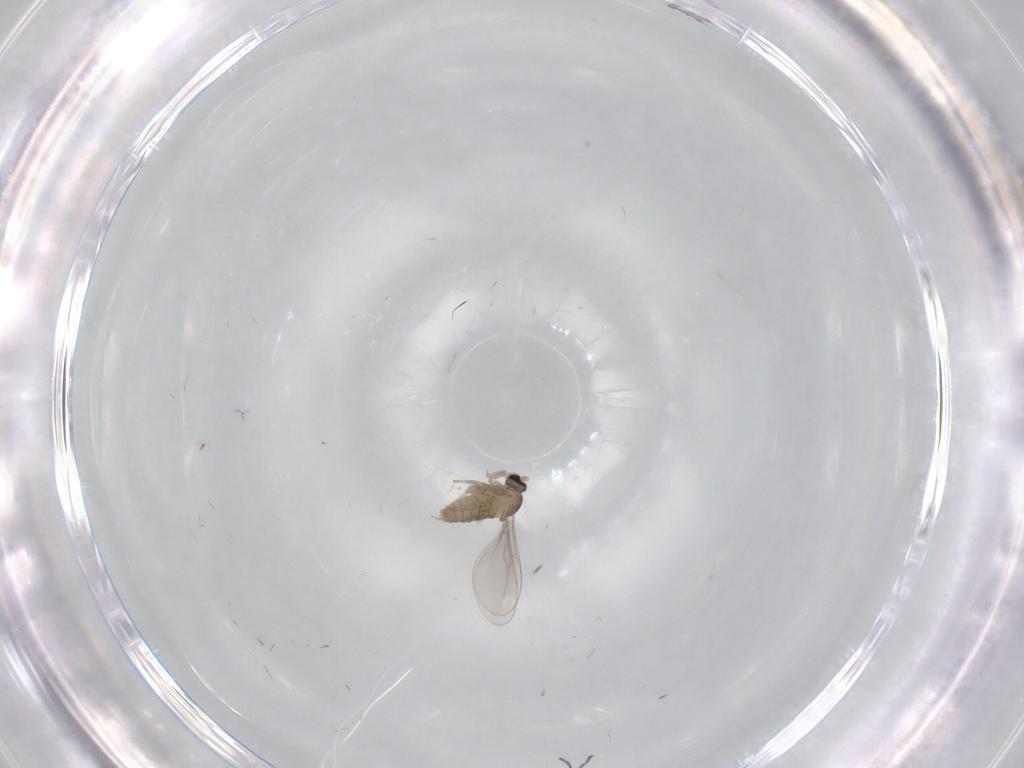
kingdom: Animalia
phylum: Arthropoda
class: Insecta
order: Diptera
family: Cecidomyiidae
